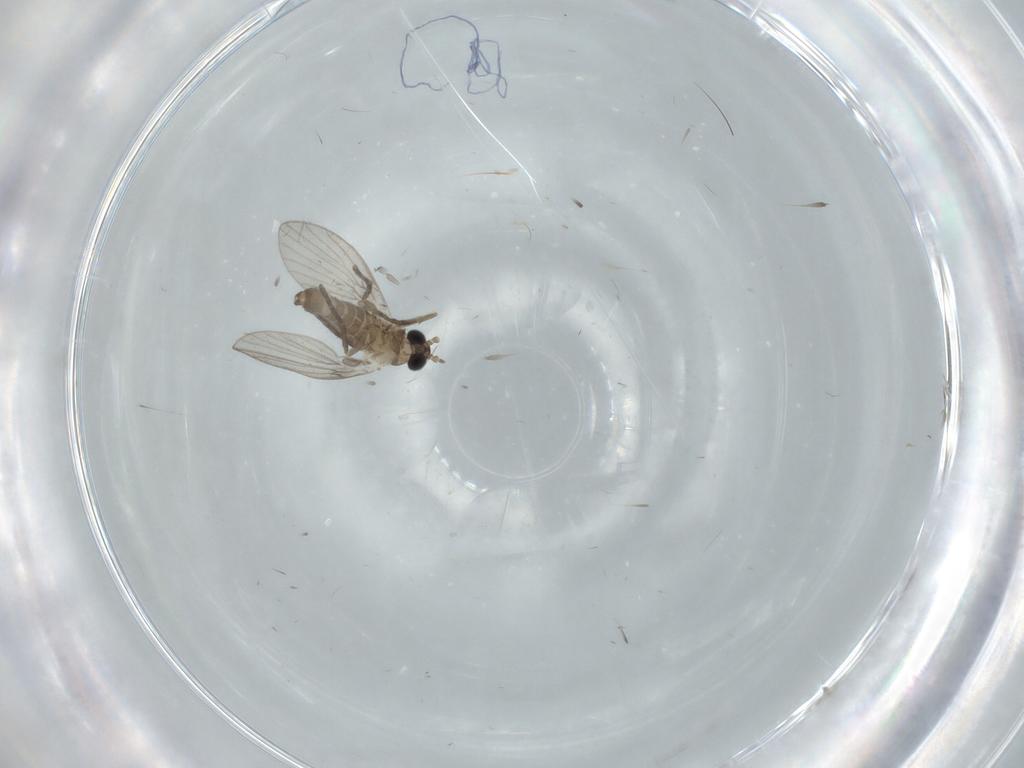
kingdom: Animalia
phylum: Arthropoda
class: Insecta
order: Diptera
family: Psychodidae
